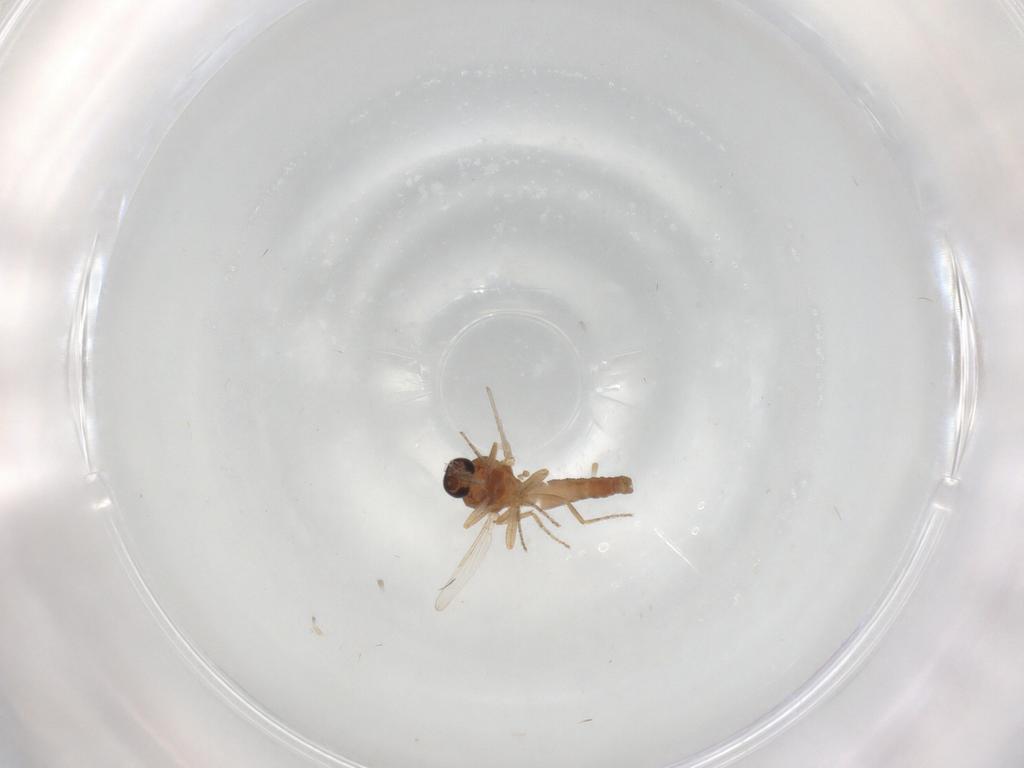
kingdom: Animalia
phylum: Arthropoda
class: Insecta
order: Diptera
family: Ceratopogonidae
